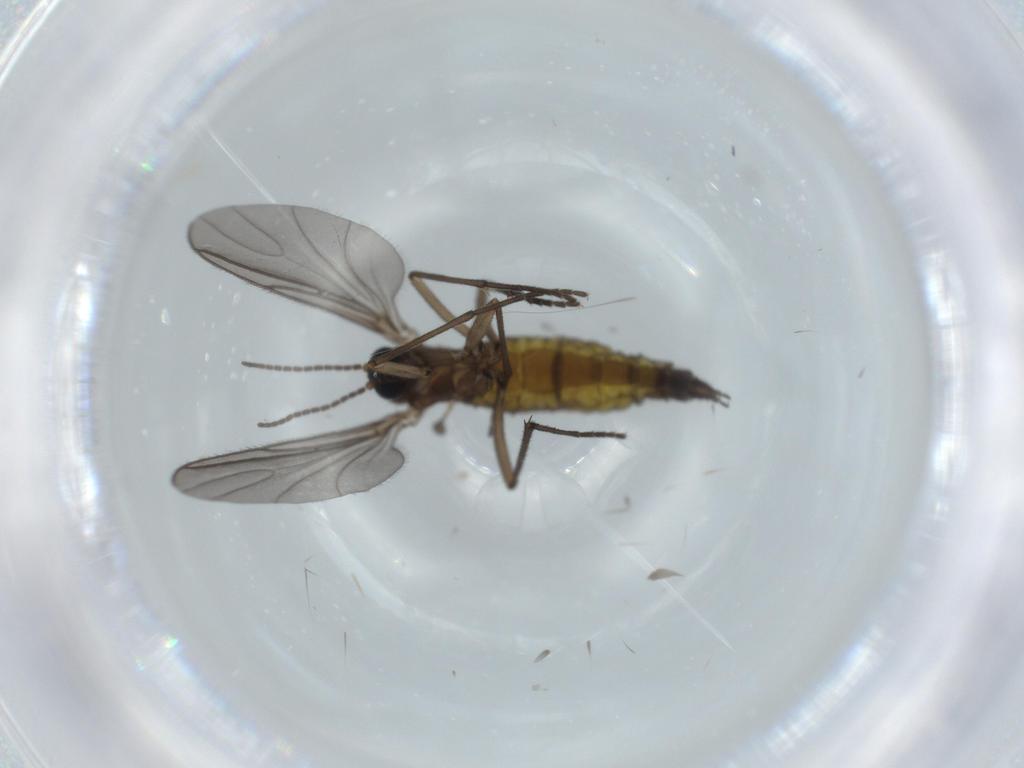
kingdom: Animalia
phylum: Arthropoda
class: Insecta
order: Diptera
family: Sciaridae
